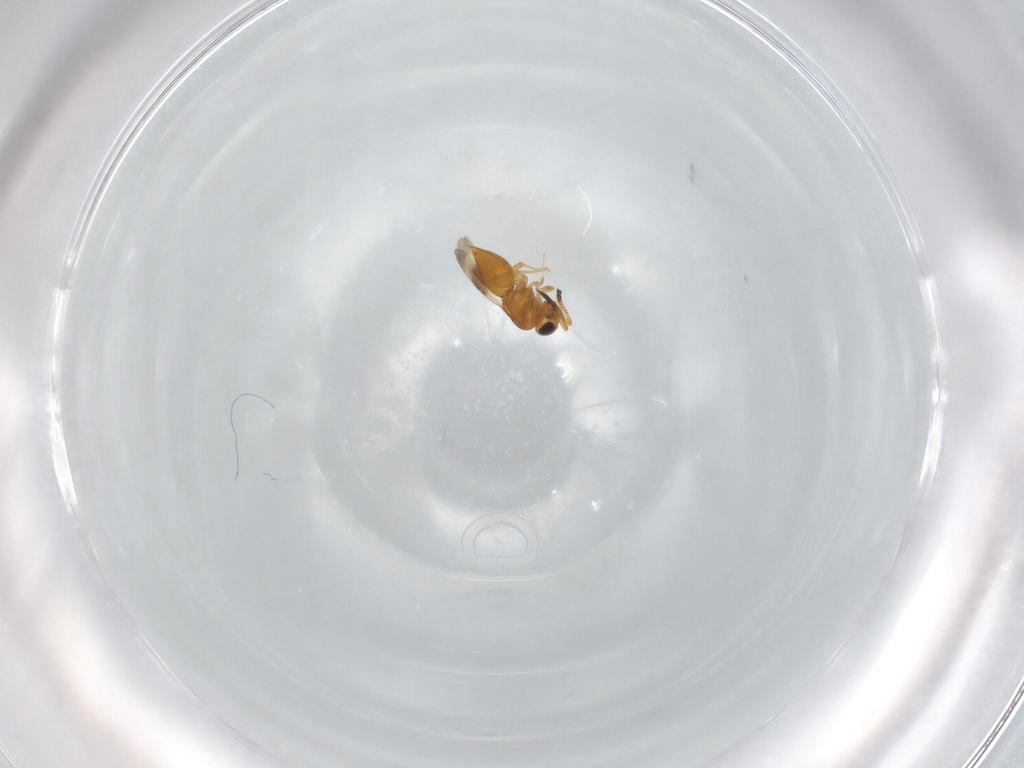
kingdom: Animalia
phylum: Arthropoda
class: Insecta
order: Hymenoptera
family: Ceraphronidae
